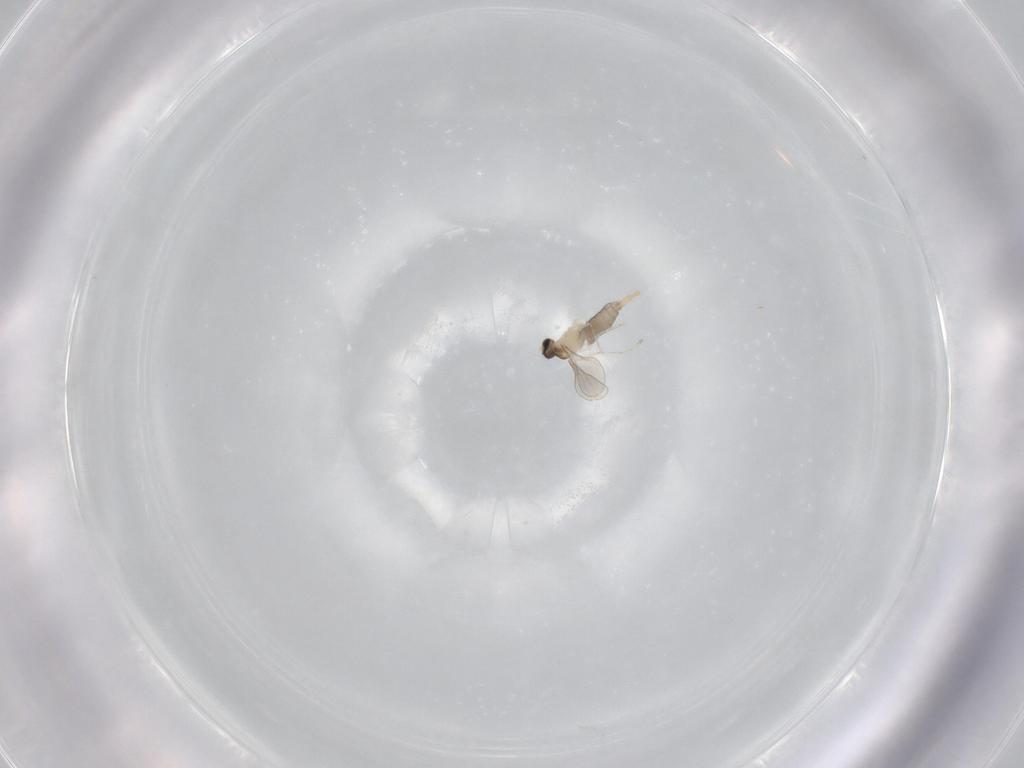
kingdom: Animalia
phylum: Arthropoda
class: Insecta
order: Diptera
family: Cecidomyiidae
